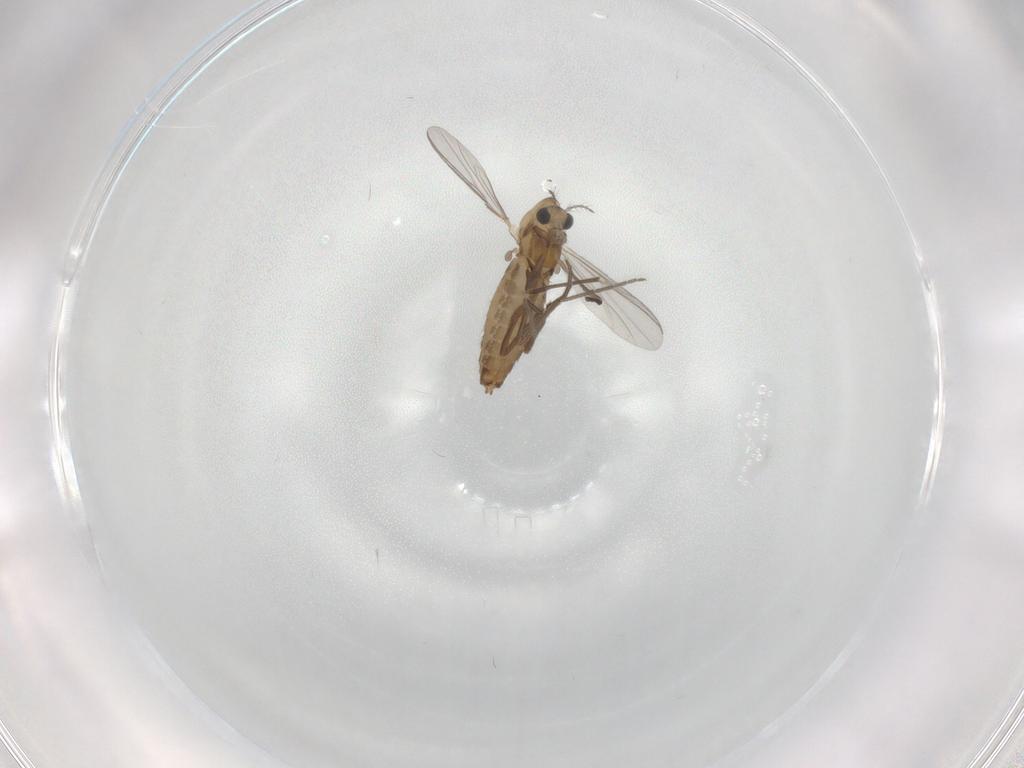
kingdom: Animalia
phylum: Arthropoda
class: Insecta
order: Diptera
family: Chironomidae
